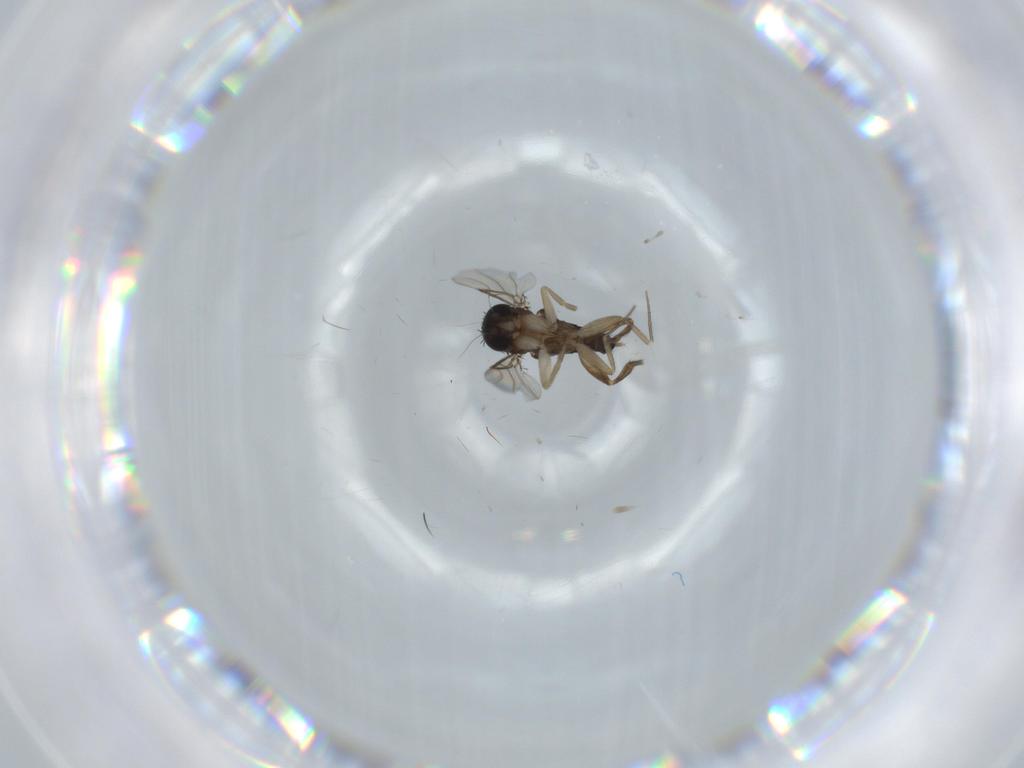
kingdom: Animalia
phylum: Arthropoda
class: Insecta
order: Diptera
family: Phoridae
